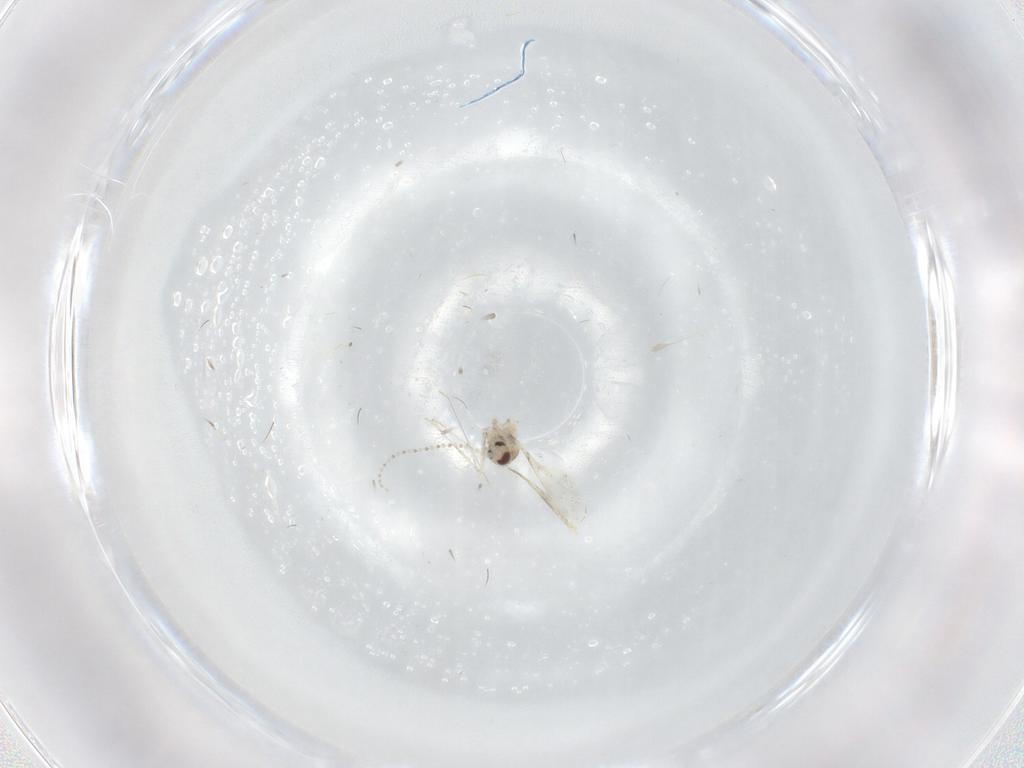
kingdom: Animalia
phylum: Arthropoda
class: Insecta
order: Diptera
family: Cecidomyiidae
